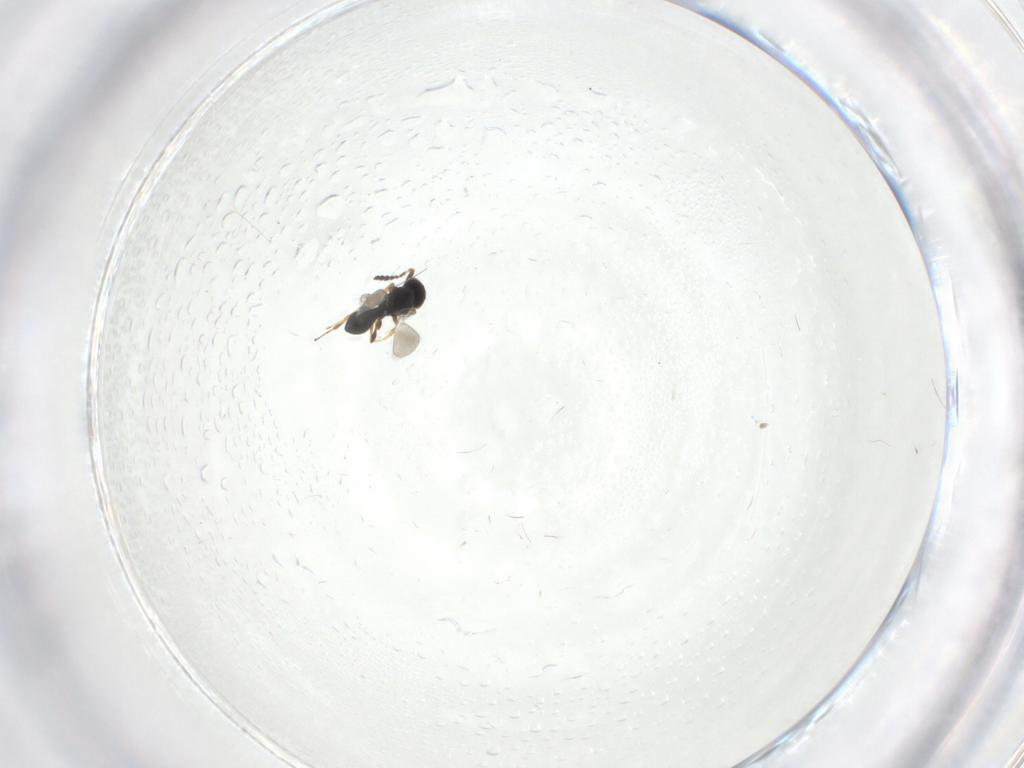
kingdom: Animalia
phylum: Arthropoda
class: Insecta
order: Hymenoptera
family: Platygastridae
